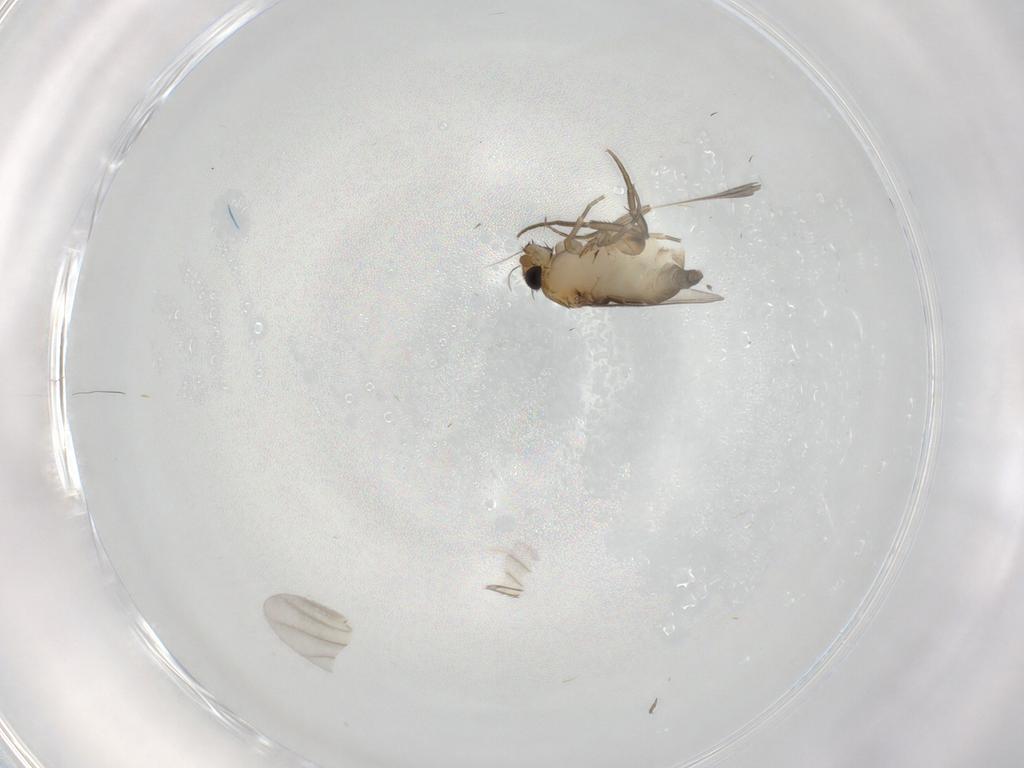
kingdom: Animalia
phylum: Arthropoda
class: Insecta
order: Diptera
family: Phoridae
